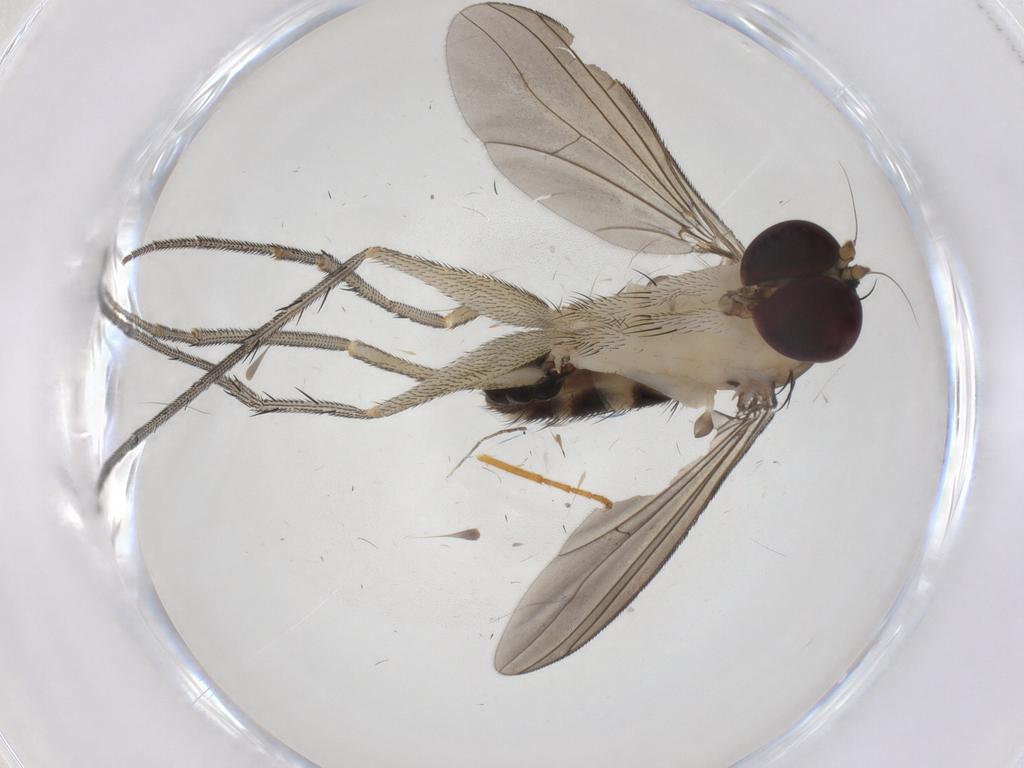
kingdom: Animalia
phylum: Arthropoda
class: Insecta
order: Diptera
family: Dolichopodidae
